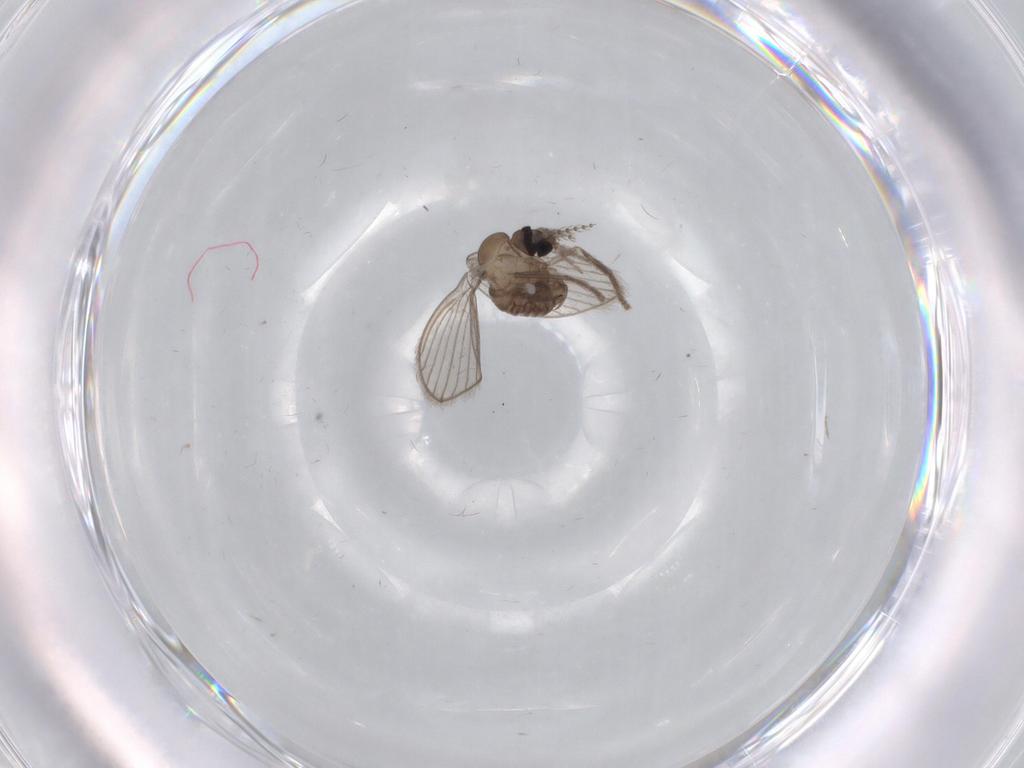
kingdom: Animalia
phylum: Arthropoda
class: Insecta
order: Diptera
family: Psychodidae
